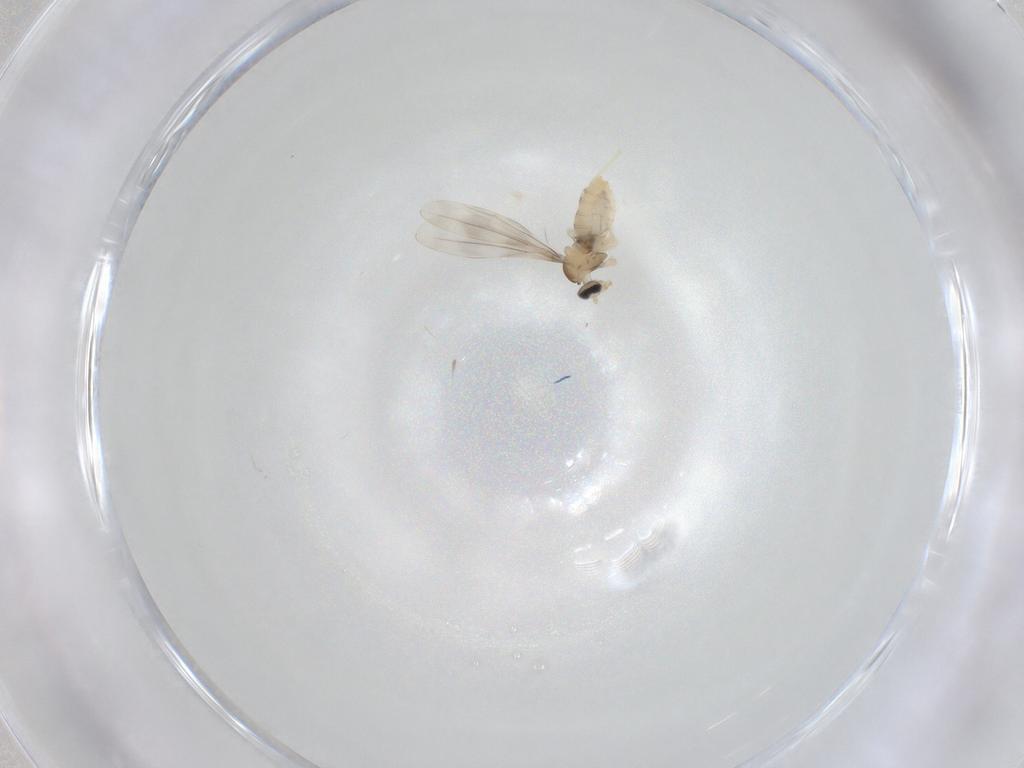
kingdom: Animalia
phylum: Arthropoda
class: Insecta
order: Diptera
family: Cecidomyiidae
